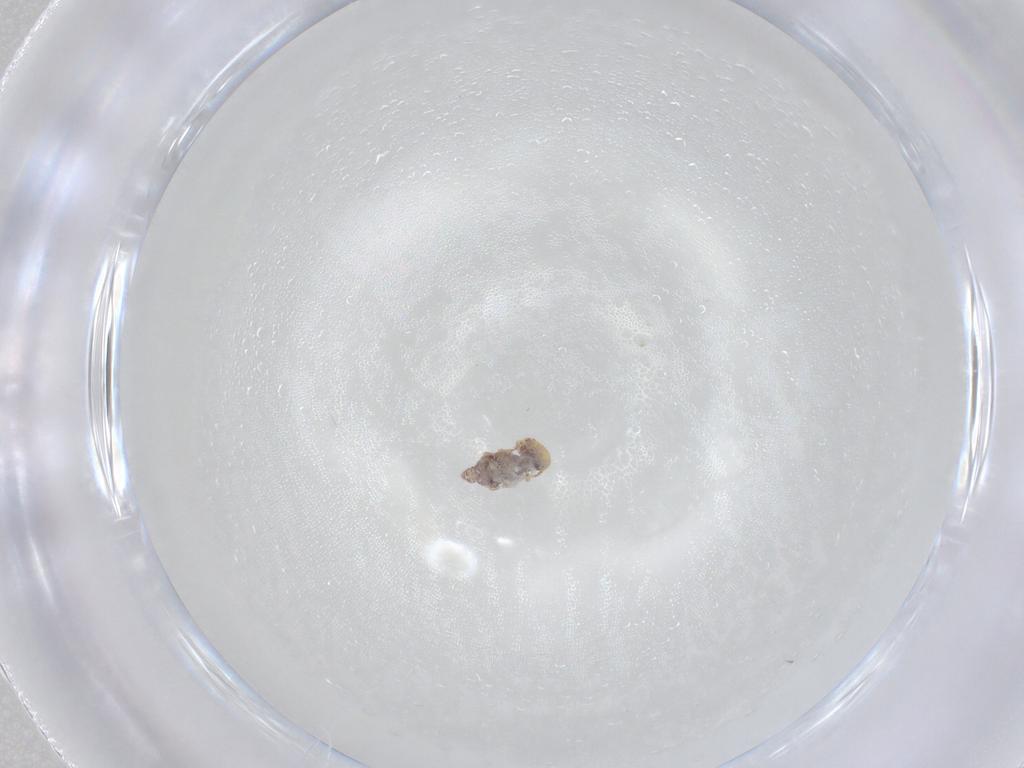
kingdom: Animalia
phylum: Arthropoda
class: Collembola
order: Symphypleona
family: Bourletiellidae
